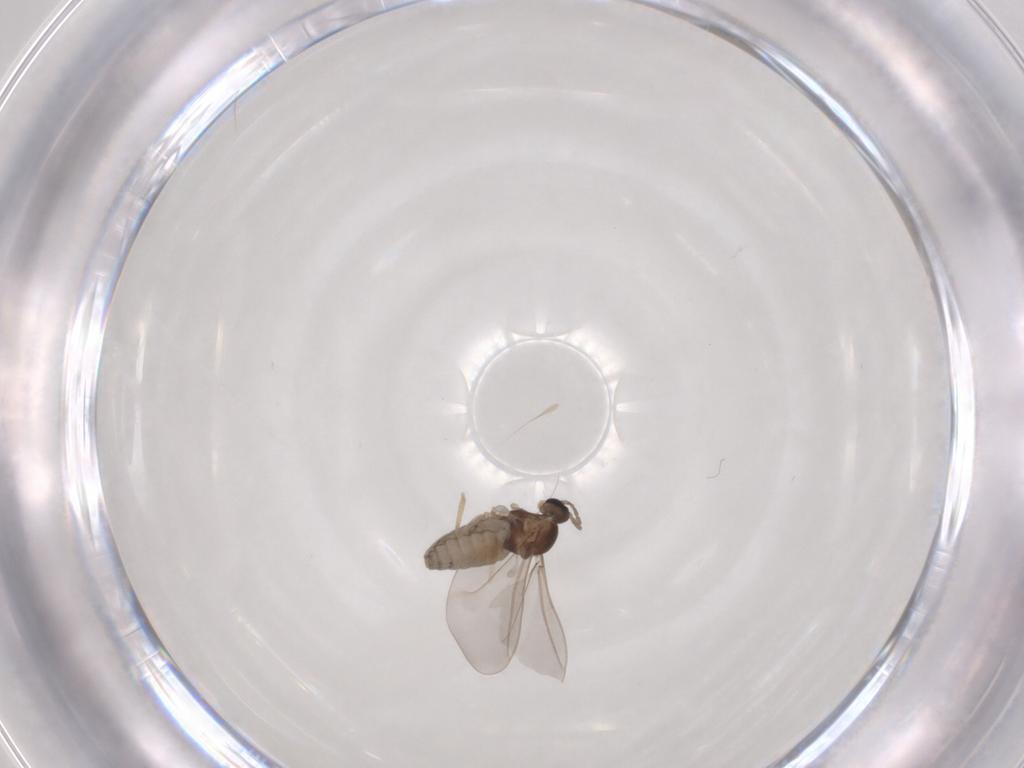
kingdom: Animalia
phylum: Arthropoda
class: Insecta
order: Diptera
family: Cecidomyiidae
